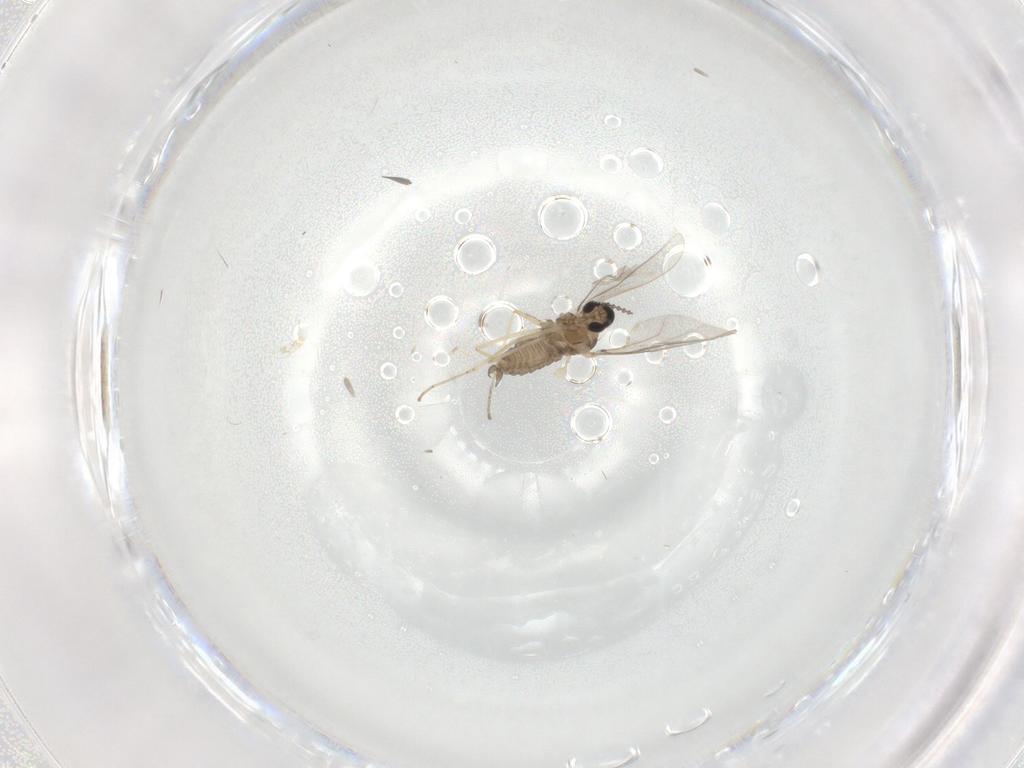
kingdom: Animalia
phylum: Arthropoda
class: Insecta
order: Diptera
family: Cecidomyiidae
